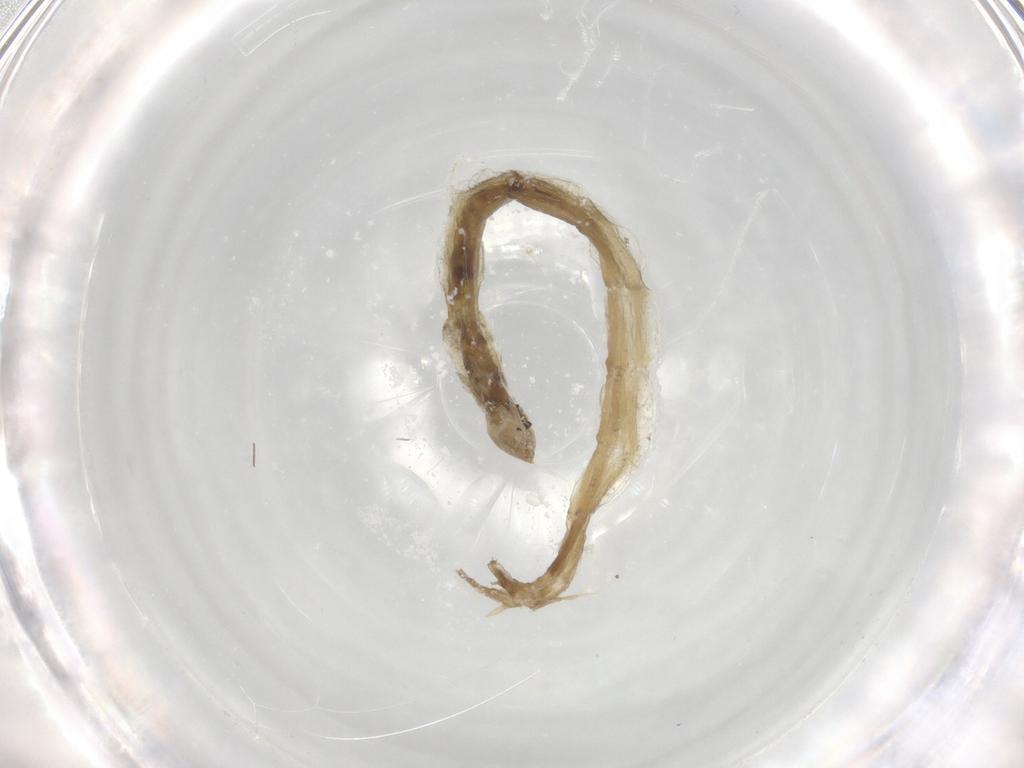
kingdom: Animalia
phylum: Arthropoda
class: Insecta
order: Diptera
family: Chironomidae
